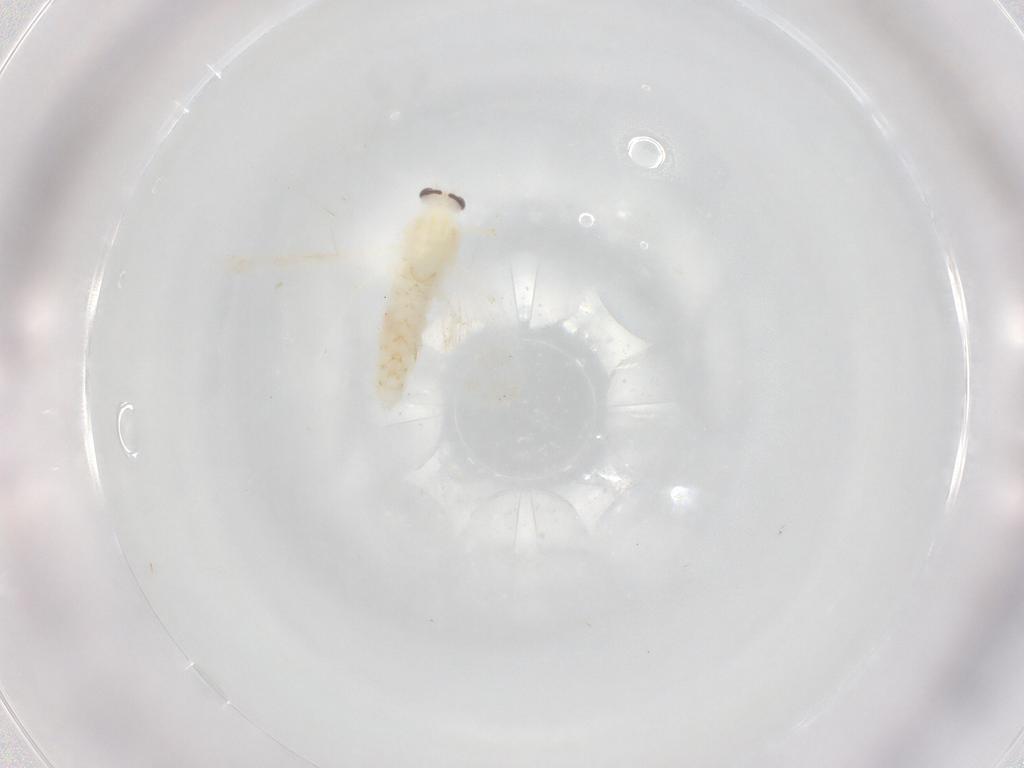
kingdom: Animalia
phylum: Arthropoda
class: Insecta
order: Diptera
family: Chironomidae
